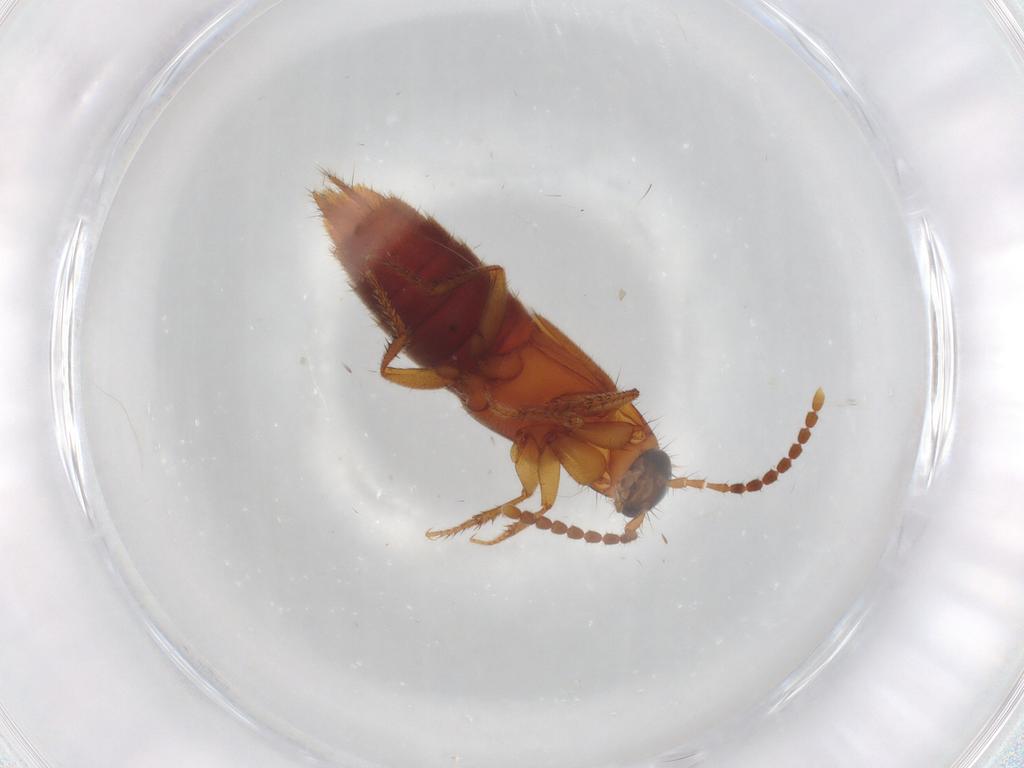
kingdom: Animalia
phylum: Arthropoda
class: Insecta
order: Coleoptera
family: Staphylinidae
